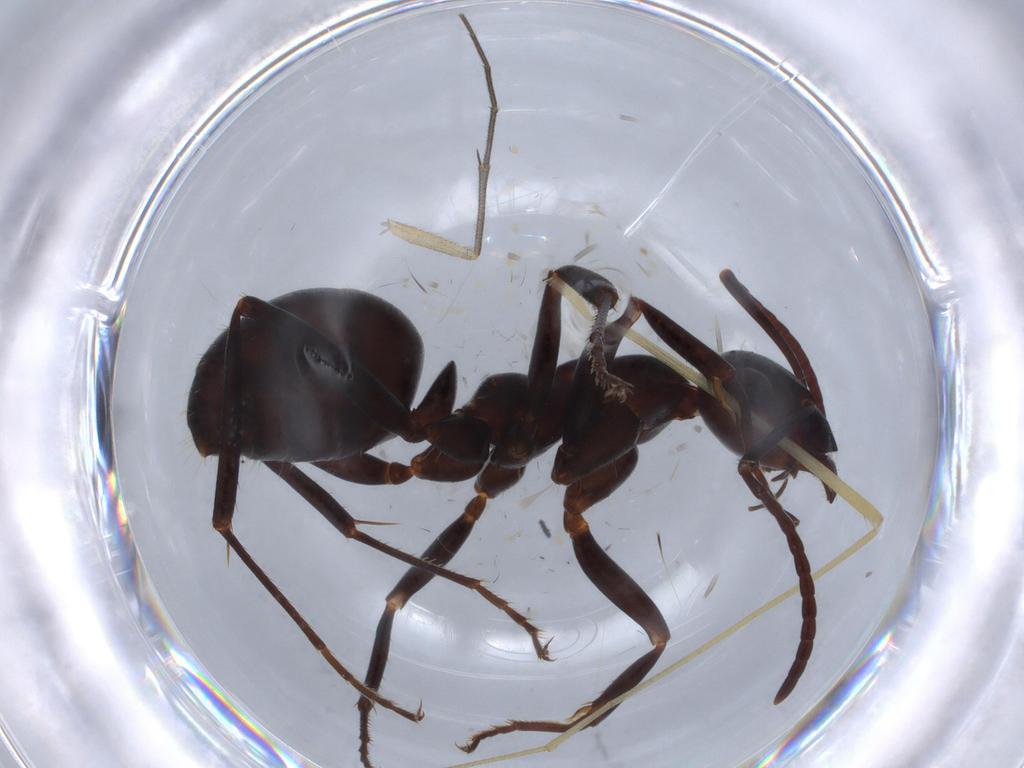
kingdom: Animalia
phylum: Arthropoda
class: Insecta
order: Hymenoptera
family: Formicidae
